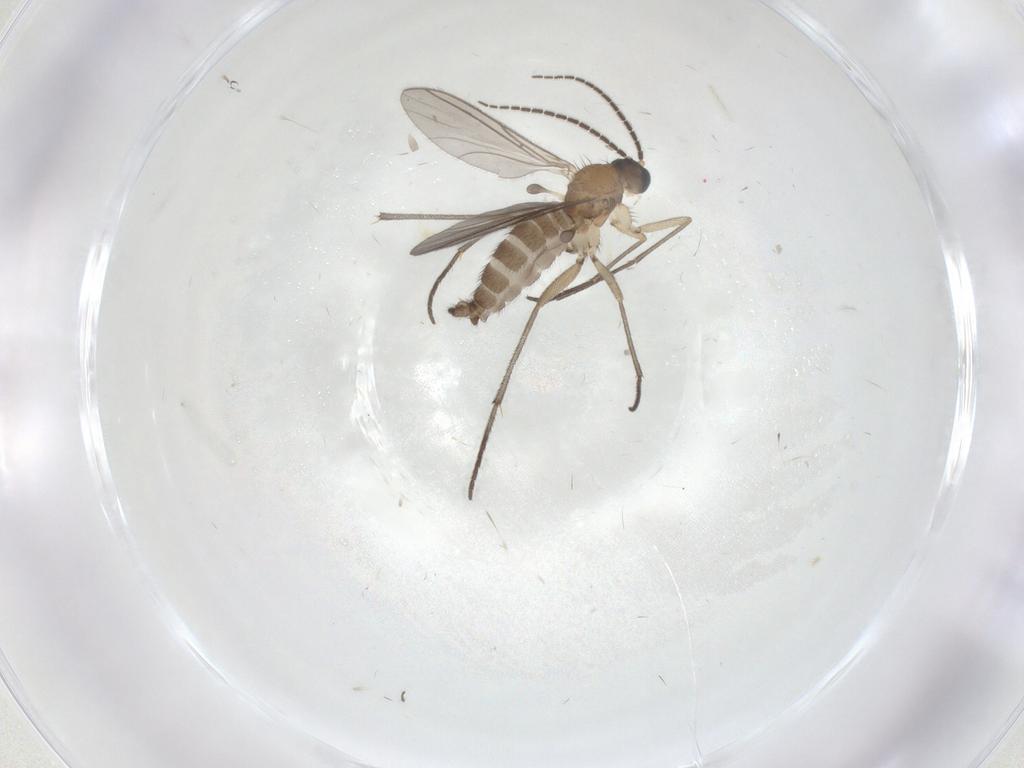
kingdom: Animalia
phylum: Arthropoda
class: Insecta
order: Diptera
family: Sciaridae
